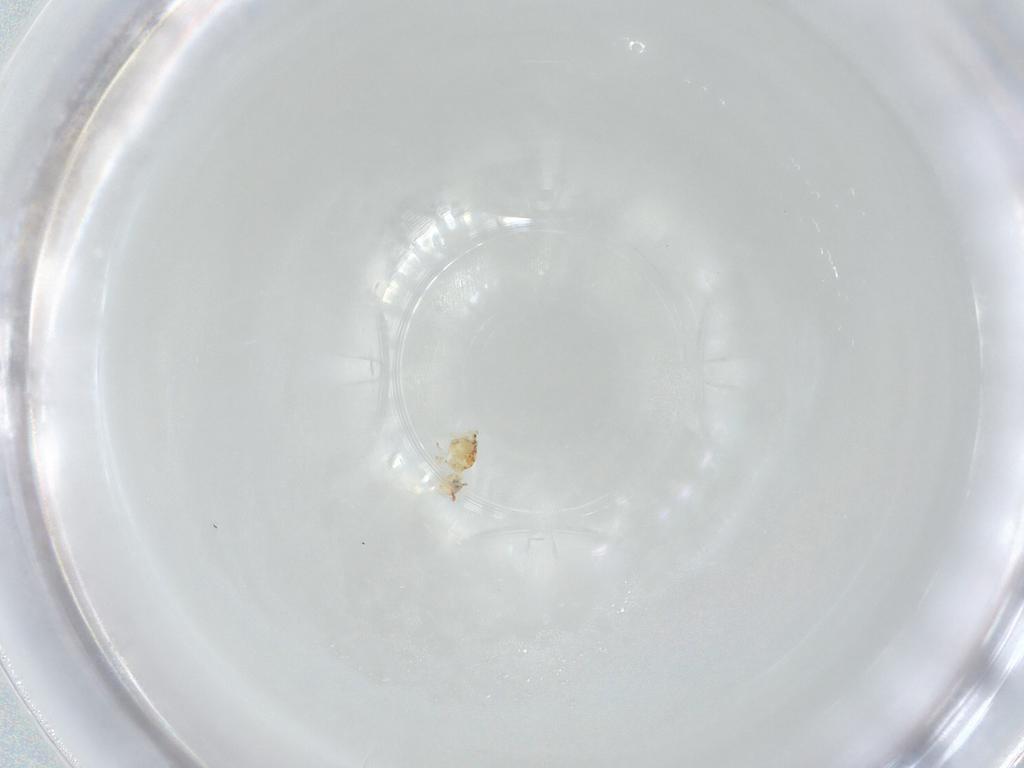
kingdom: Animalia
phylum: Arthropoda
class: Collembola
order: Symphypleona
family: Bourletiellidae
